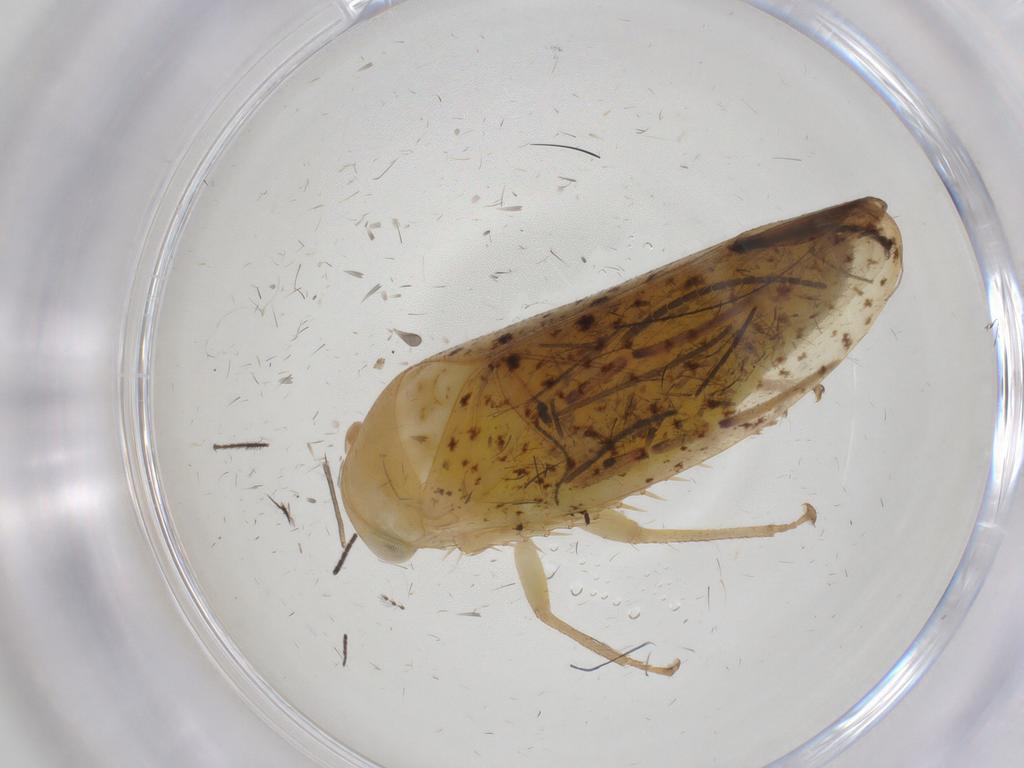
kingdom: Animalia
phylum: Arthropoda
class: Insecta
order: Hemiptera
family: Cicadellidae
